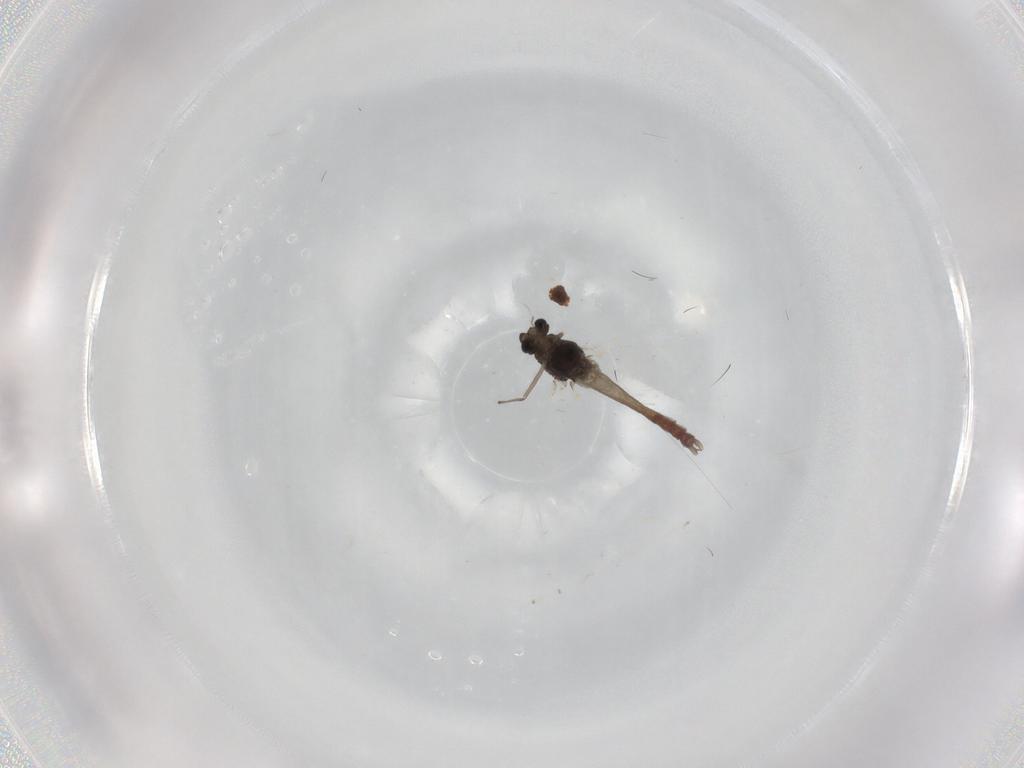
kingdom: Animalia
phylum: Arthropoda
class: Insecta
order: Diptera
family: Chironomidae
